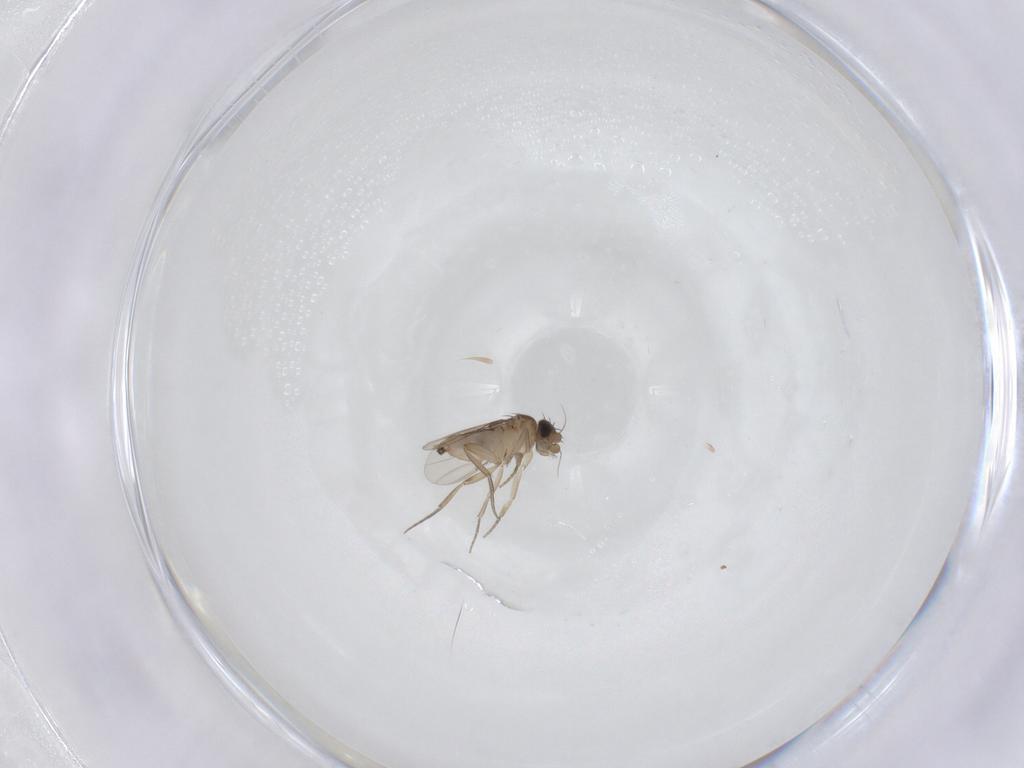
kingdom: Animalia
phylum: Arthropoda
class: Insecta
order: Diptera
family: Phoridae
